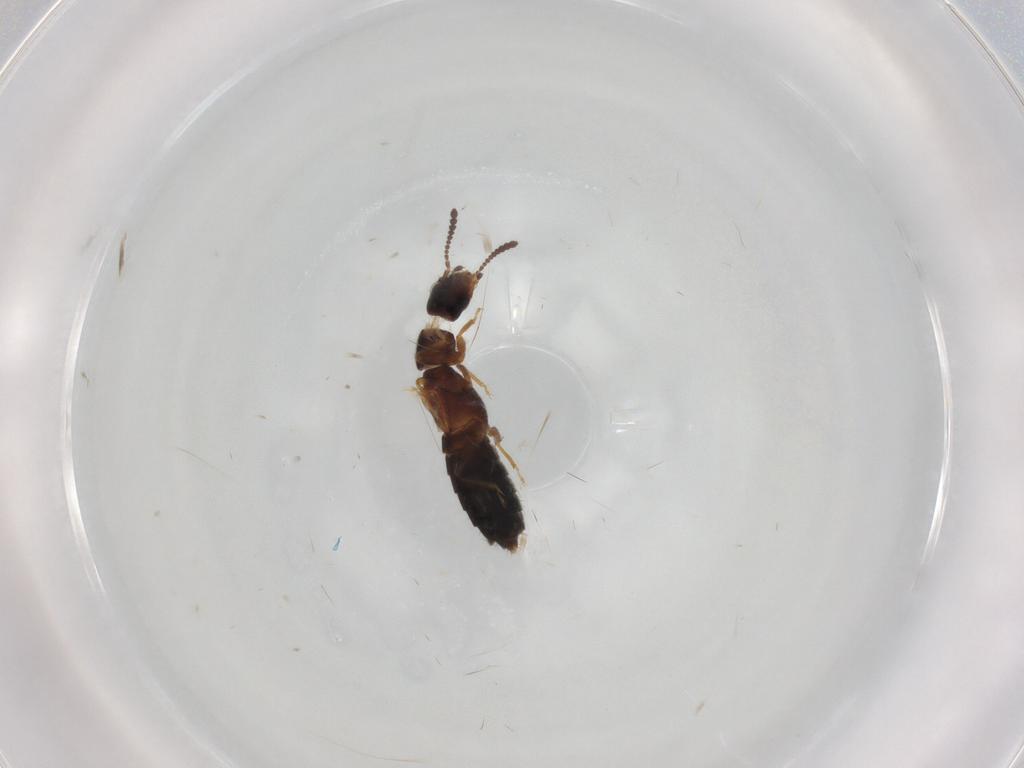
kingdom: Animalia
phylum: Arthropoda
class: Insecta
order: Coleoptera
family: Staphylinidae
